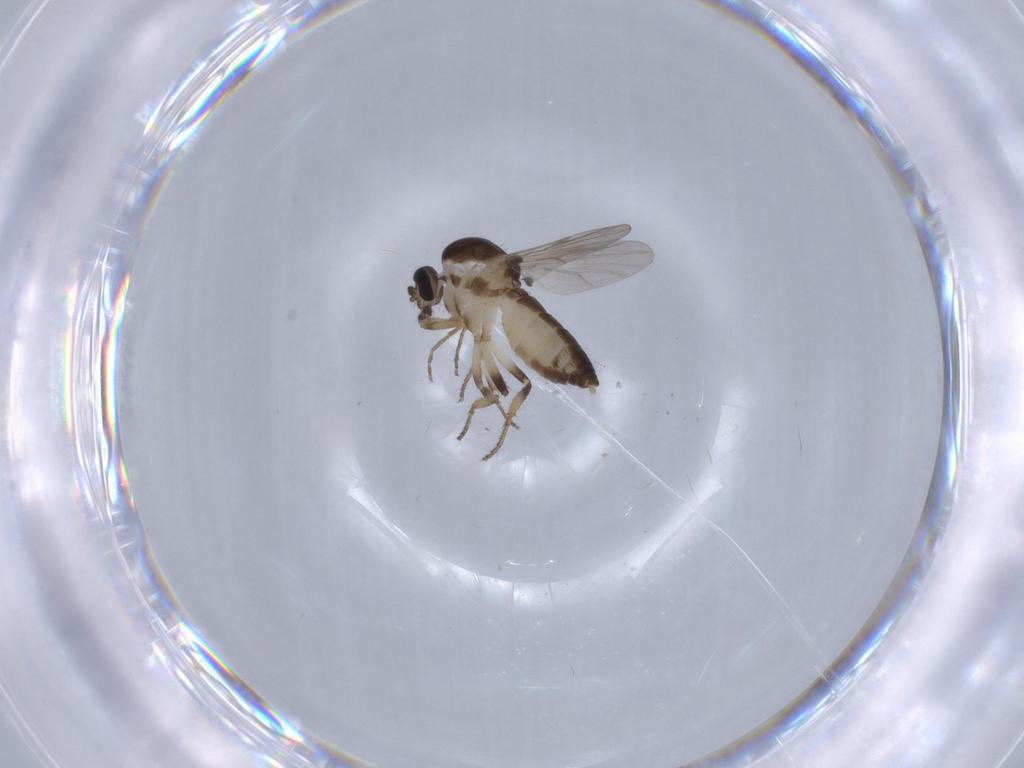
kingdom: Animalia
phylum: Arthropoda
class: Insecta
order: Diptera
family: Ceratopogonidae
